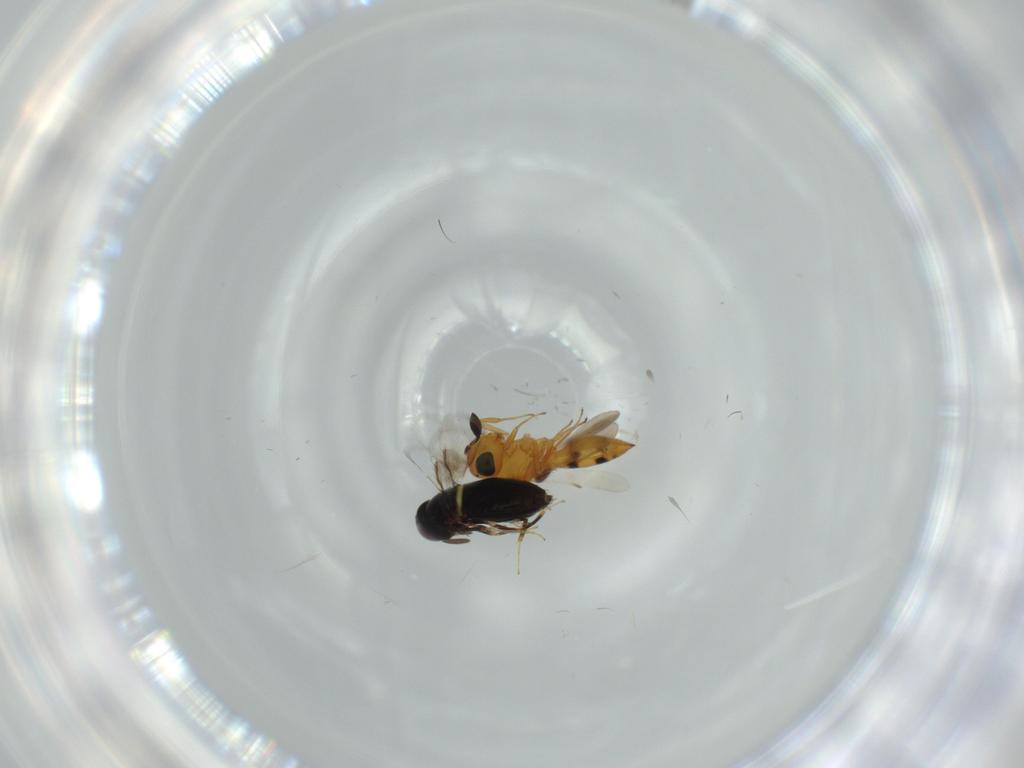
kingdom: Animalia
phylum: Arthropoda
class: Insecta
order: Hymenoptera
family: Scelionidae
